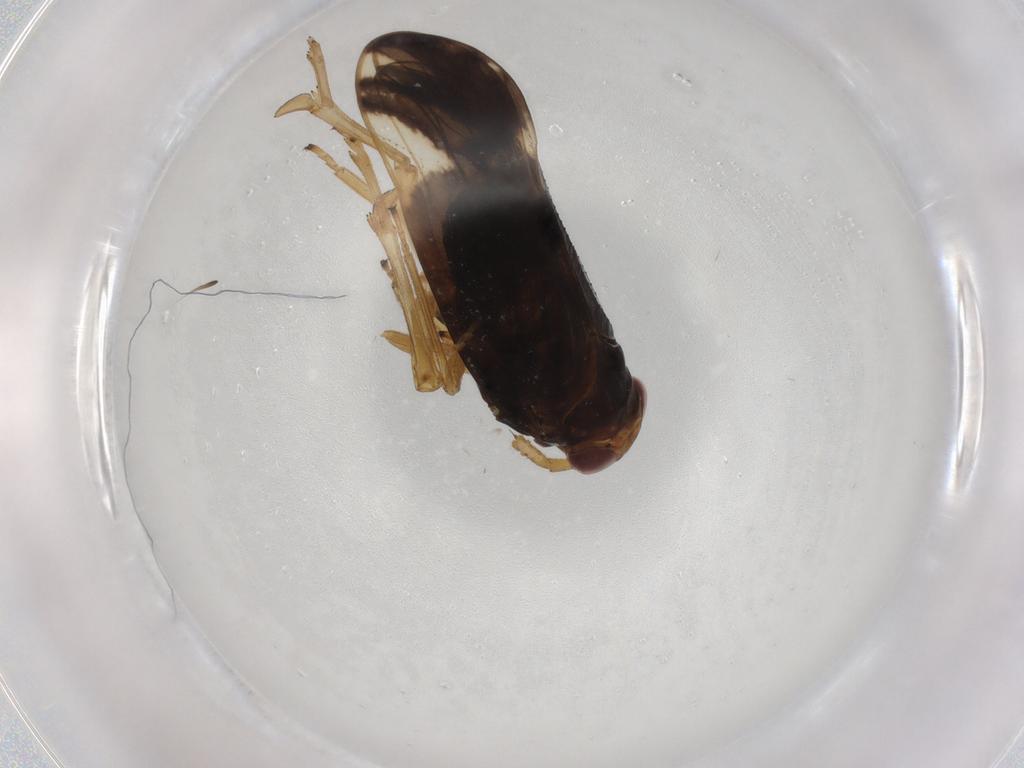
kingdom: Animalia
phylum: Arthropoda
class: Insecta
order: Hemiptera
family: Delphacidae
